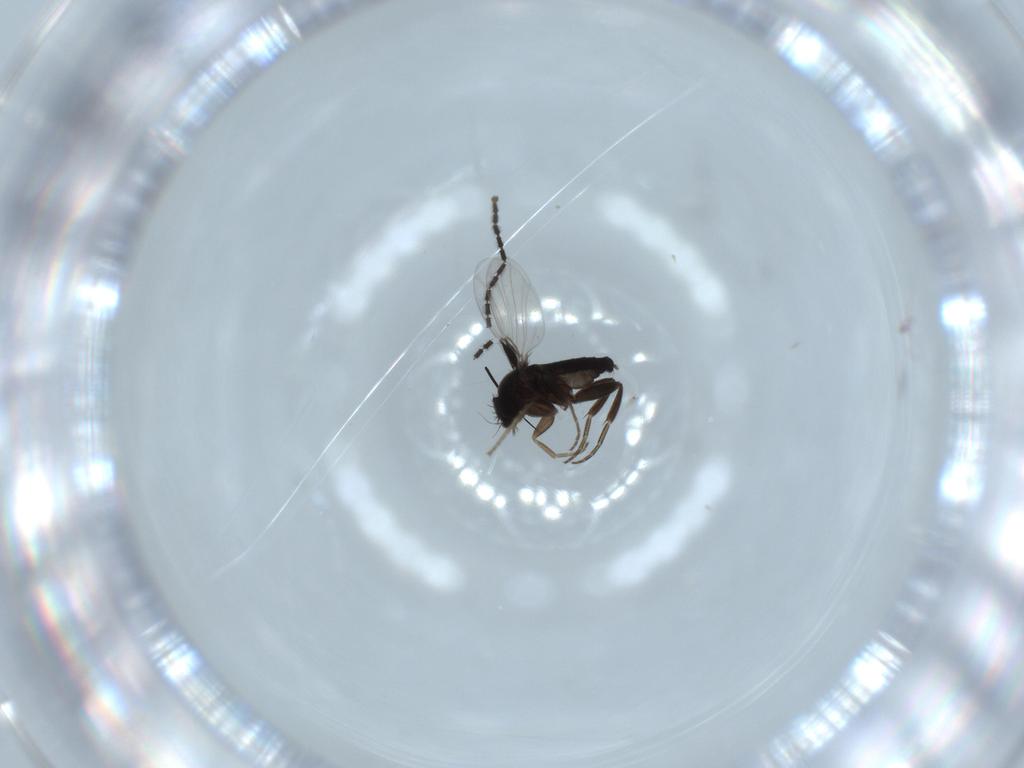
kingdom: Animalia
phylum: Arthropoda
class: Insecta
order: Diptera
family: Sciaridae
